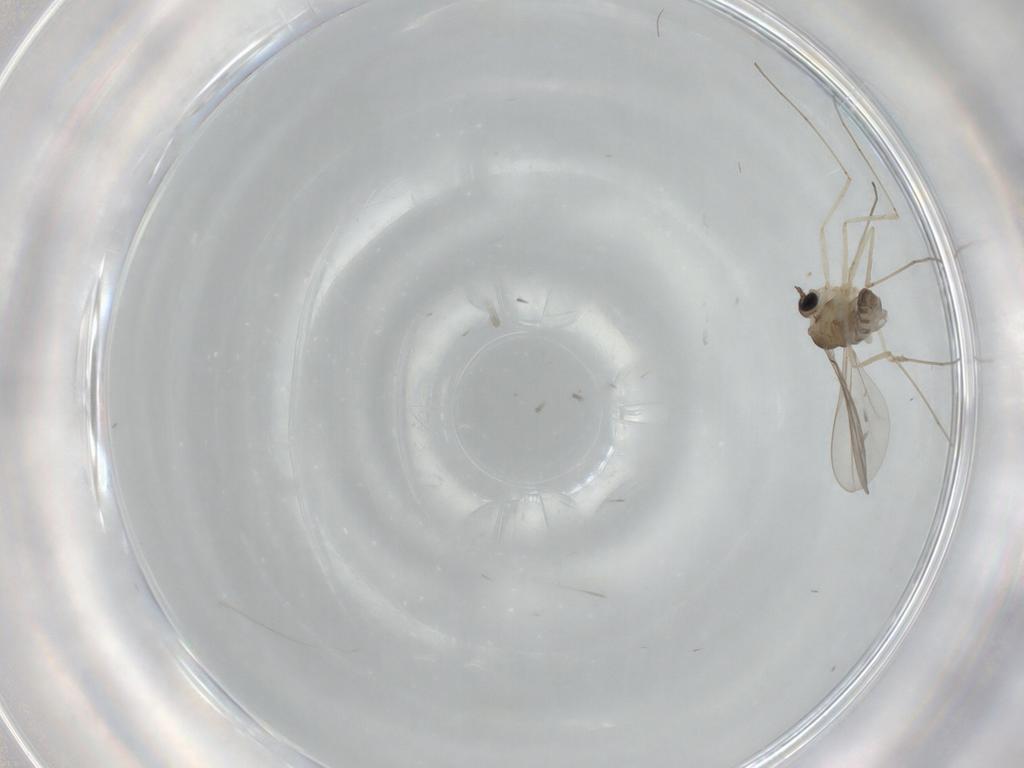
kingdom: Animalia
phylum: Arthropoda
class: Insecta
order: Diptera
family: Cecidomyiidae
